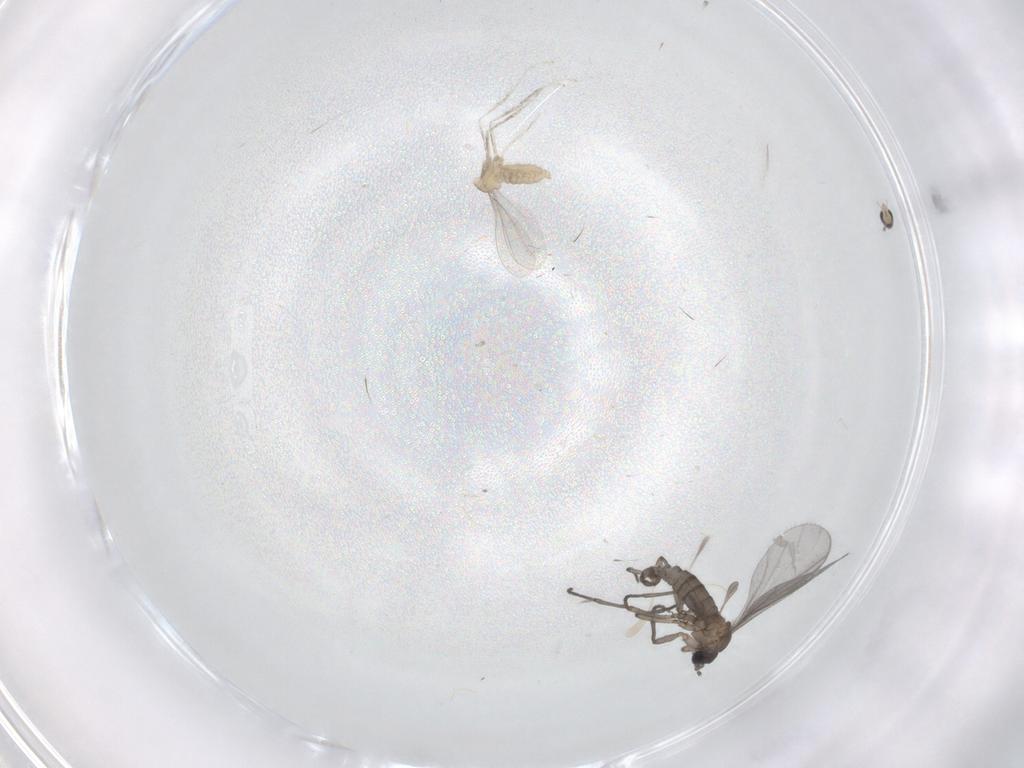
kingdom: Animalia
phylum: Arthropoda
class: Insecta
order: Diptera
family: Sciaridae
